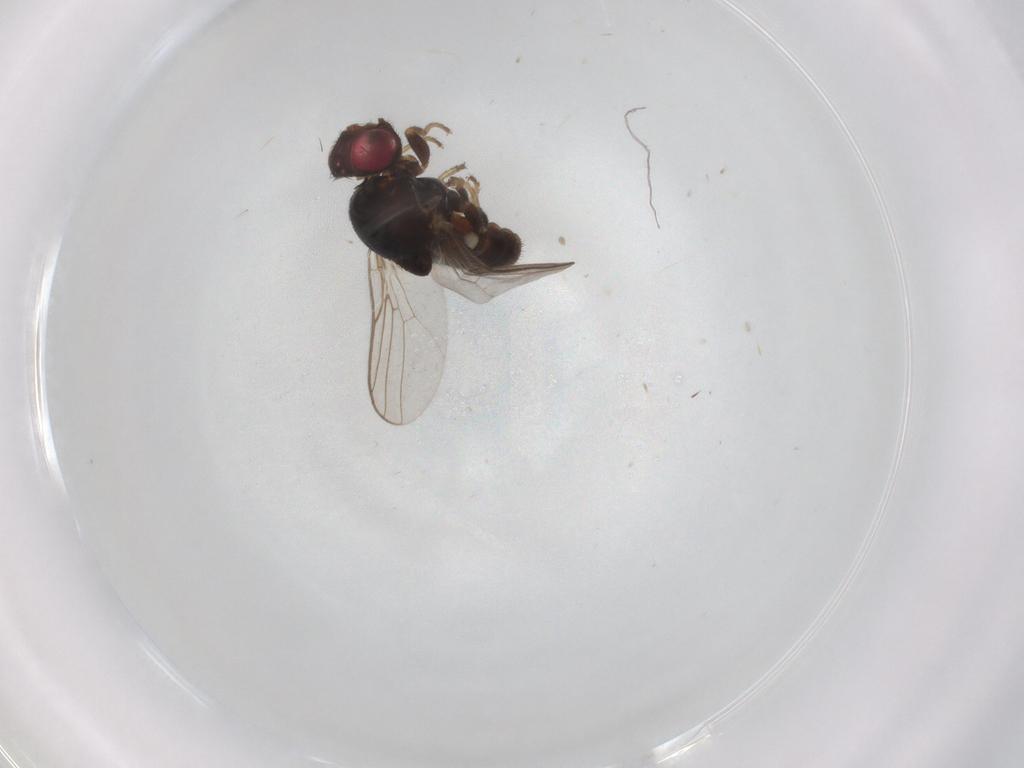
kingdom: Animalia
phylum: Arthropoda
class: Insecta
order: Diptera
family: Chloropidae
